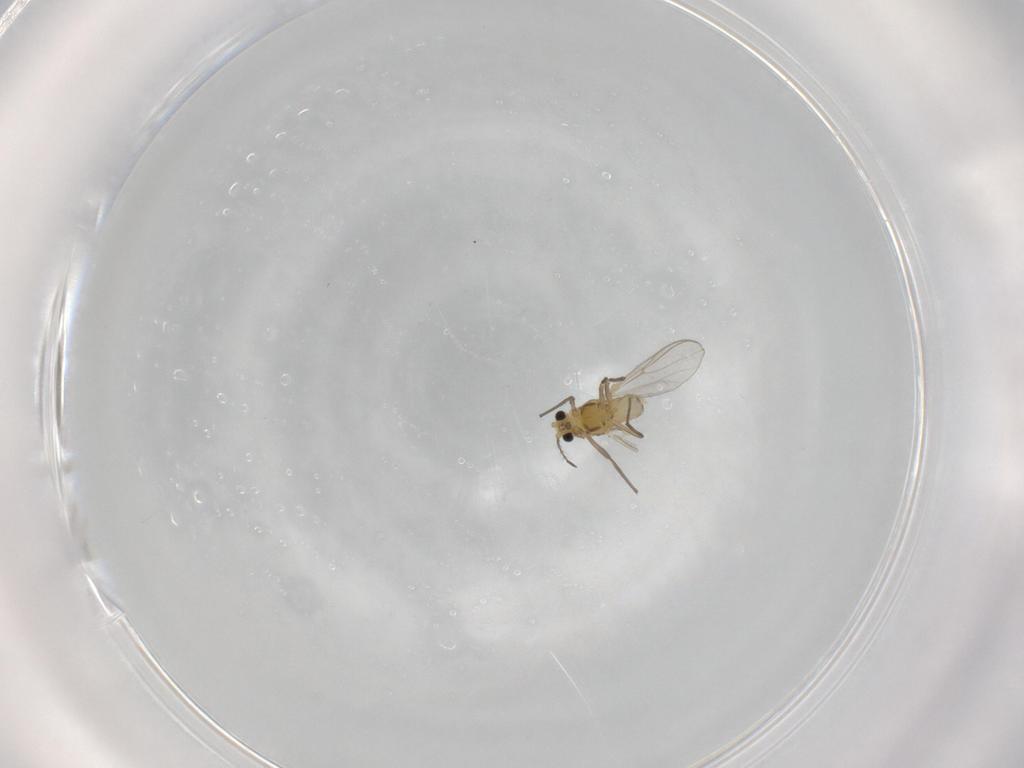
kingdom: Animalia
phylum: Arthropoda
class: Insecta
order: Diptera
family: Chironomidae
